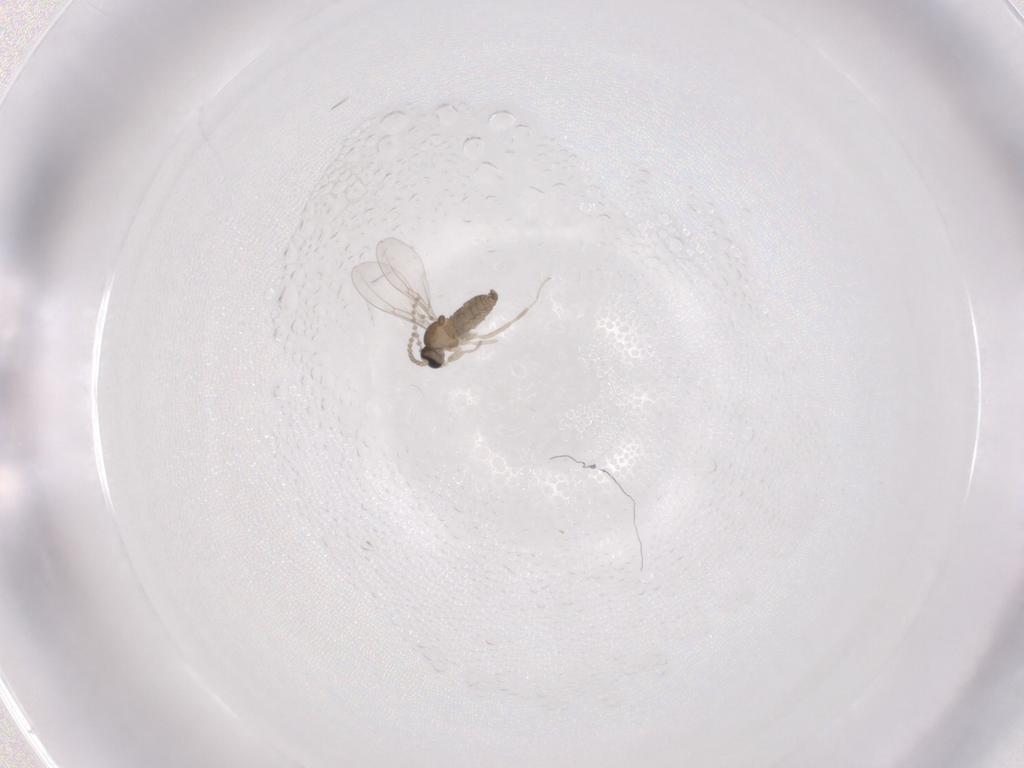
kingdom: Animalia
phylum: Arthropoda
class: Insecta
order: Diptera
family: Cecidomyiidae
